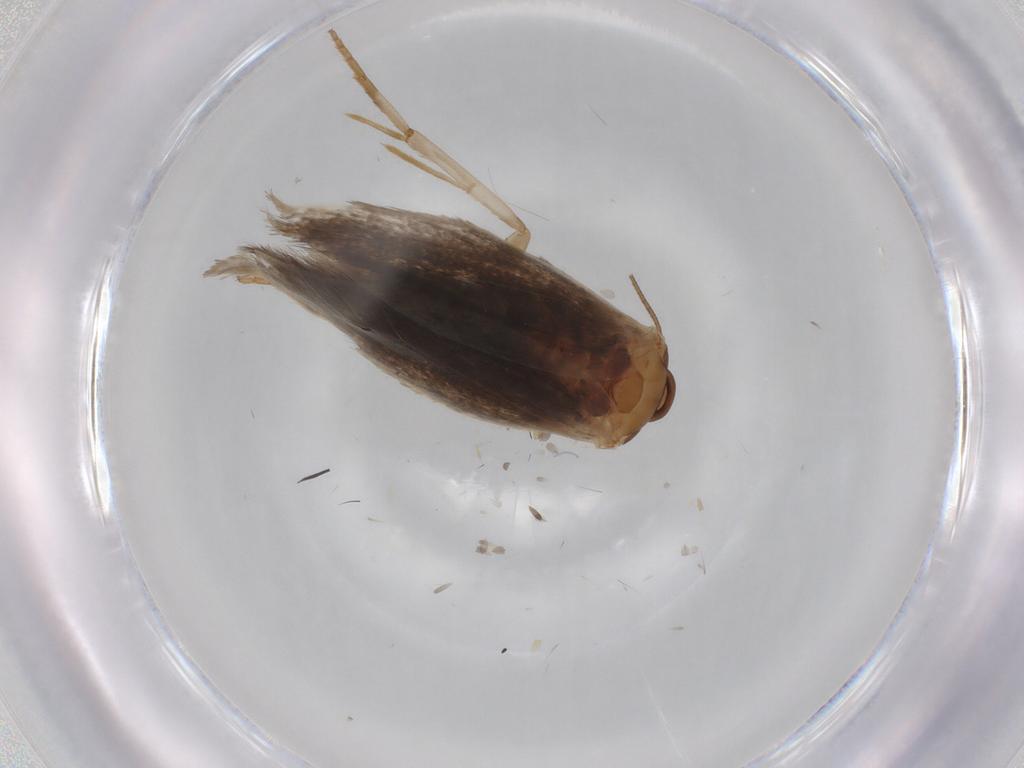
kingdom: Animalia
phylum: Arthropoda
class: Insecta
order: Lepidoptera
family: Elachistidae
